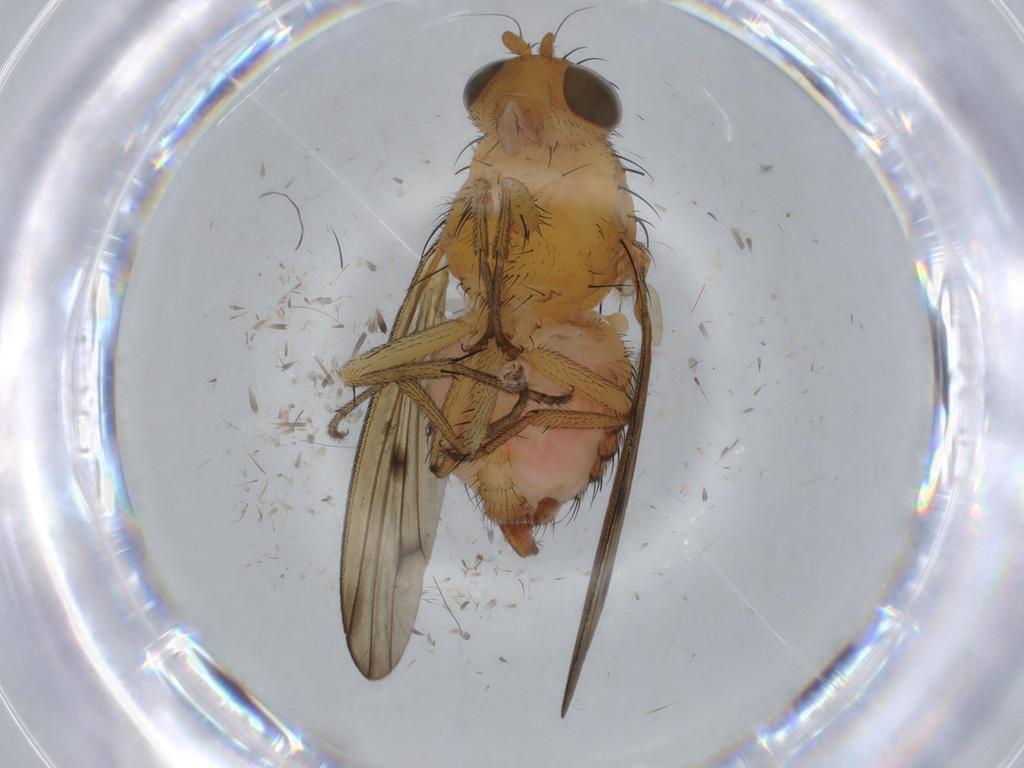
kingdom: Animalia
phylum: Arthropoda
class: Insecta
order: Diptera
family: Stratiomyidae
